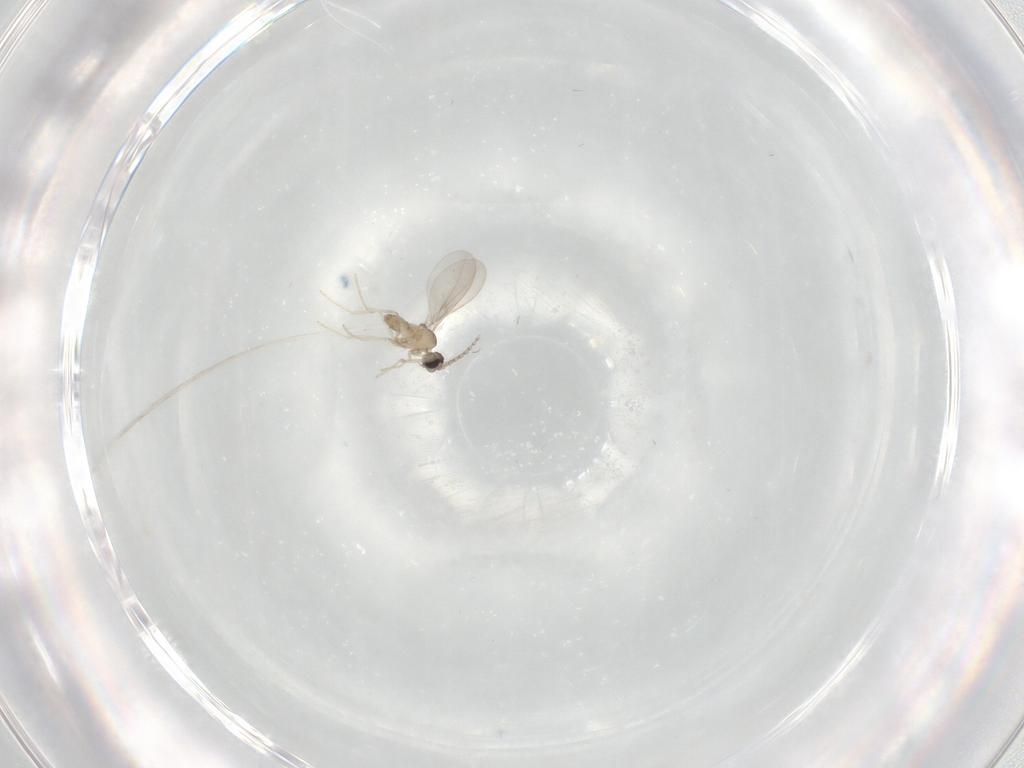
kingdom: Animalia
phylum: Arthropoda
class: Insecta
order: Diptera
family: Cecidomyiidae
